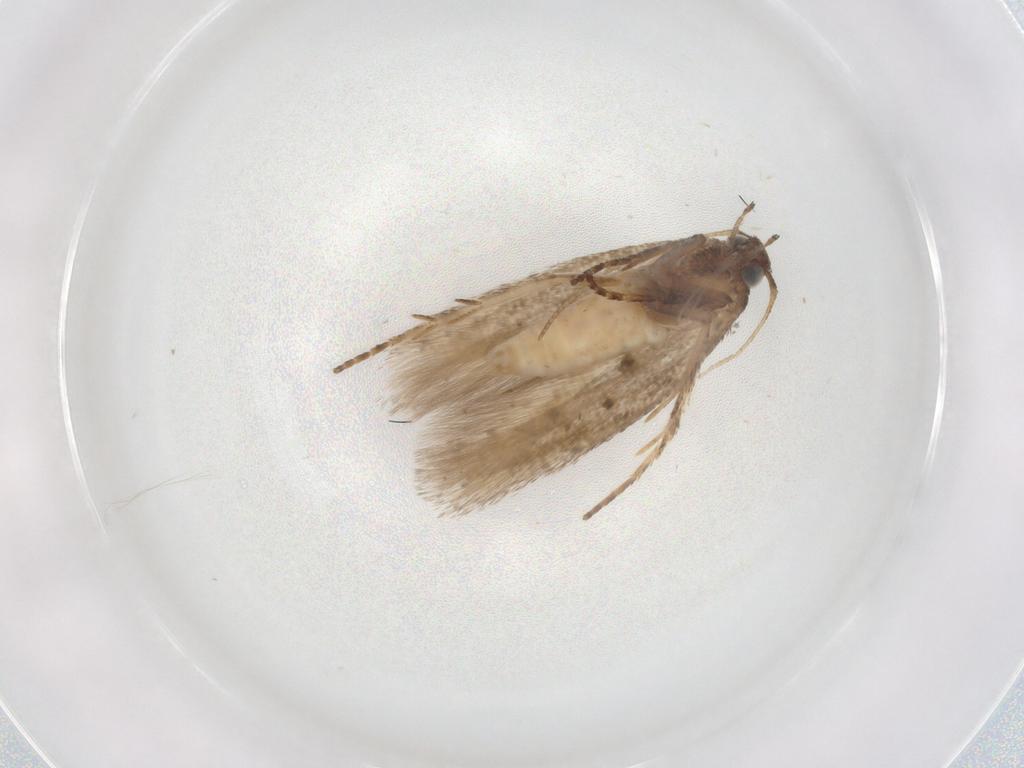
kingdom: Animalia
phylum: Arthropoda
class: Insecta
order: Lepidoptera
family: Gelechiidae
